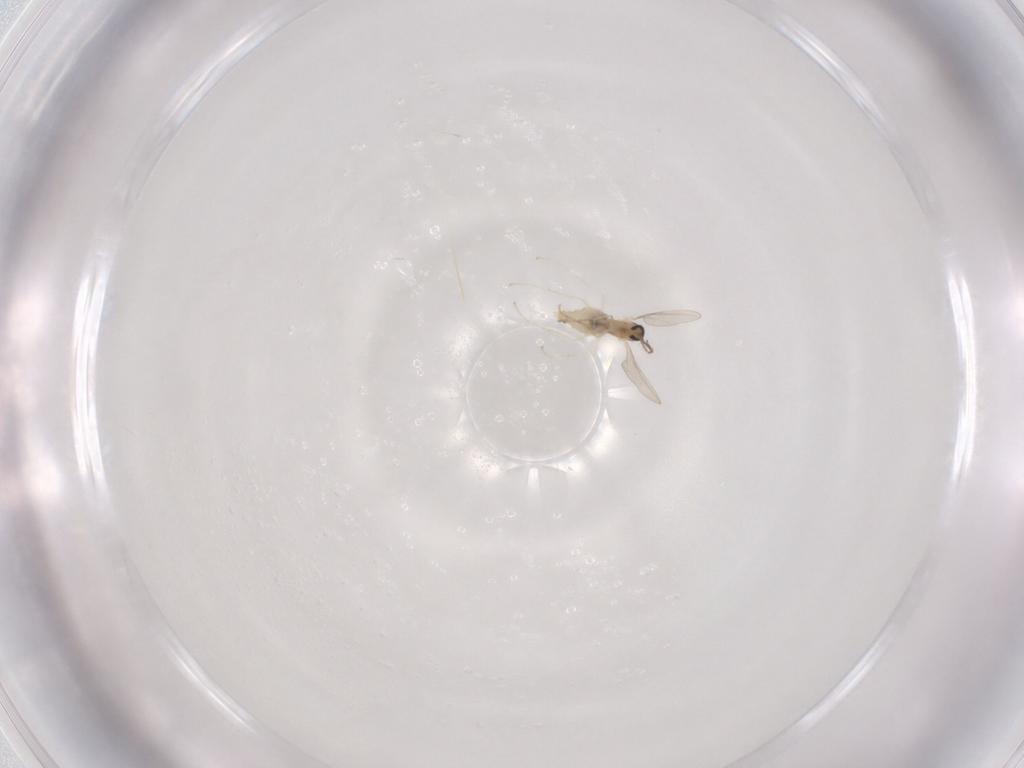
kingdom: Animalia
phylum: Arthropoda
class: Insecta
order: Diptera
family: Cecidomyiidae
